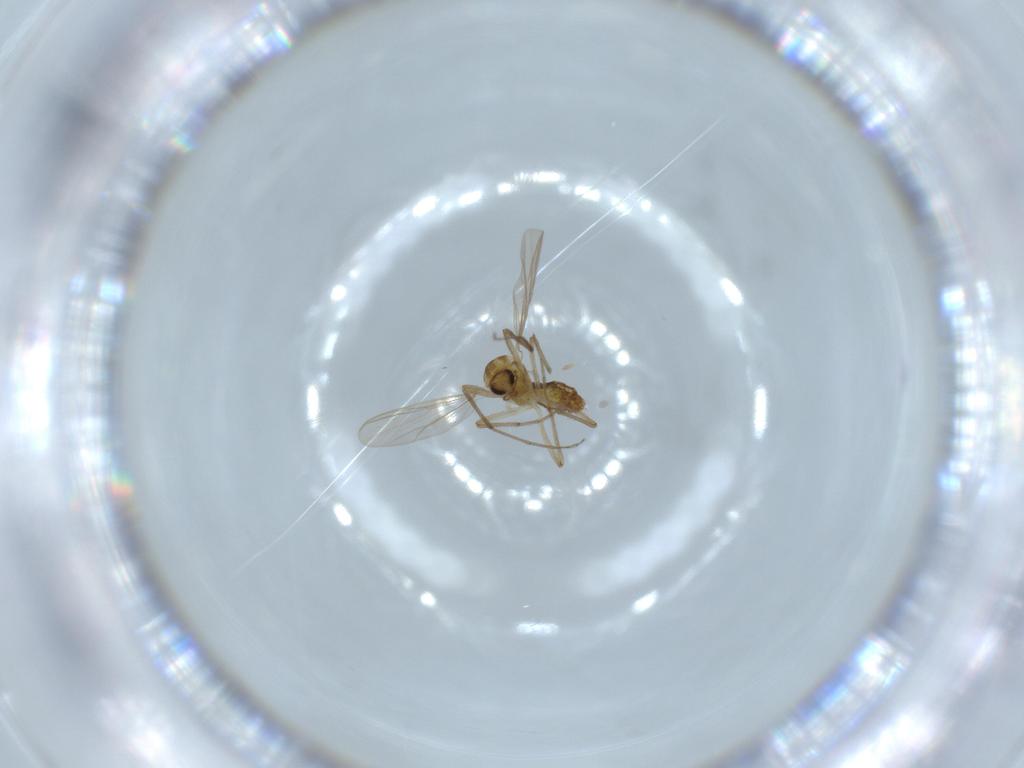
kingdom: Animalia
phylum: Arthropoda
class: Insecta
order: Diptera
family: Chironomidae
